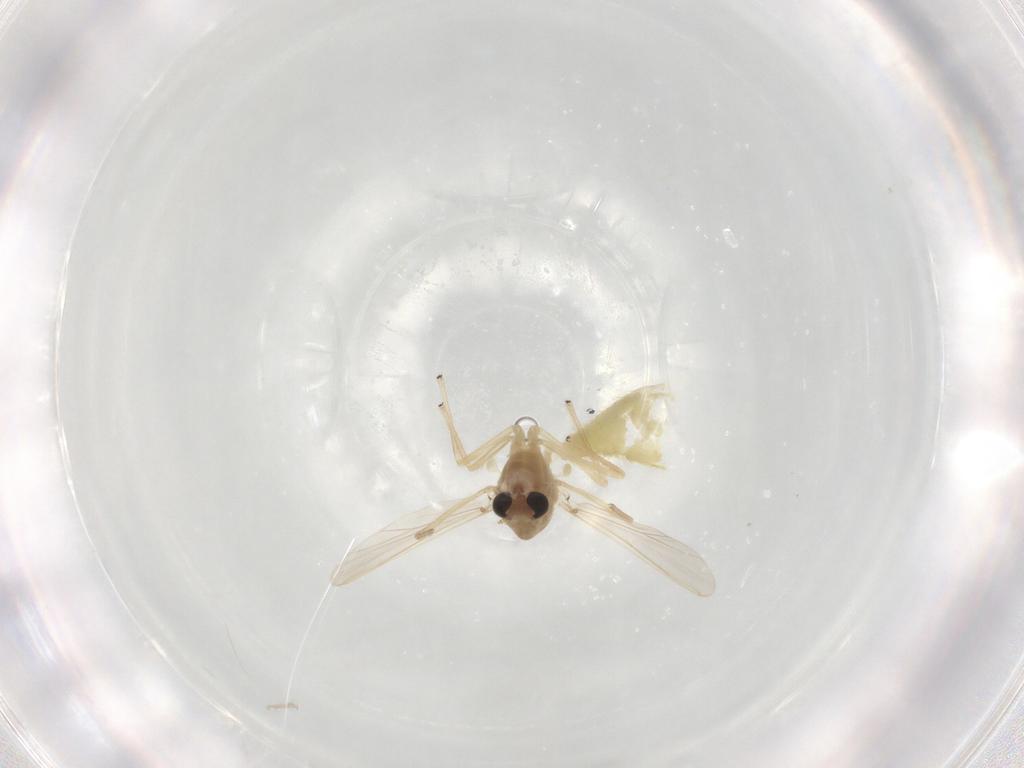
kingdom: Animalia
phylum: Arthropoda
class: Insecta
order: Diptera
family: Chironomidae
